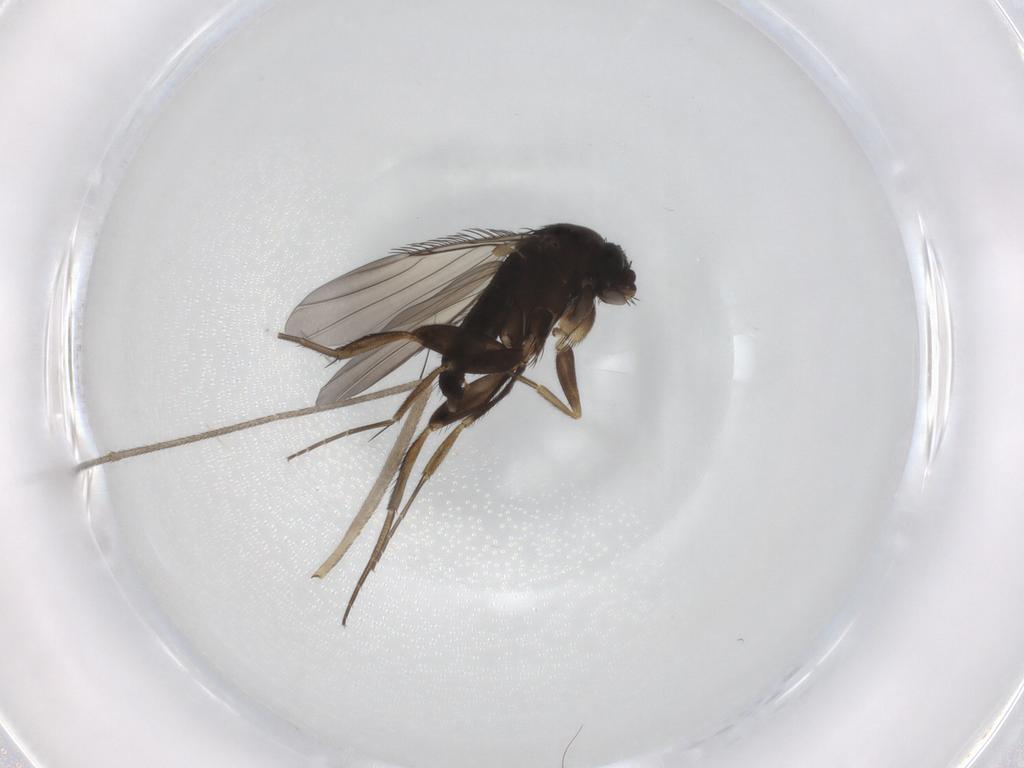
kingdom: Animalia
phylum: Arthropoda
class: Insecta
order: Diptera
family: Phoridae
